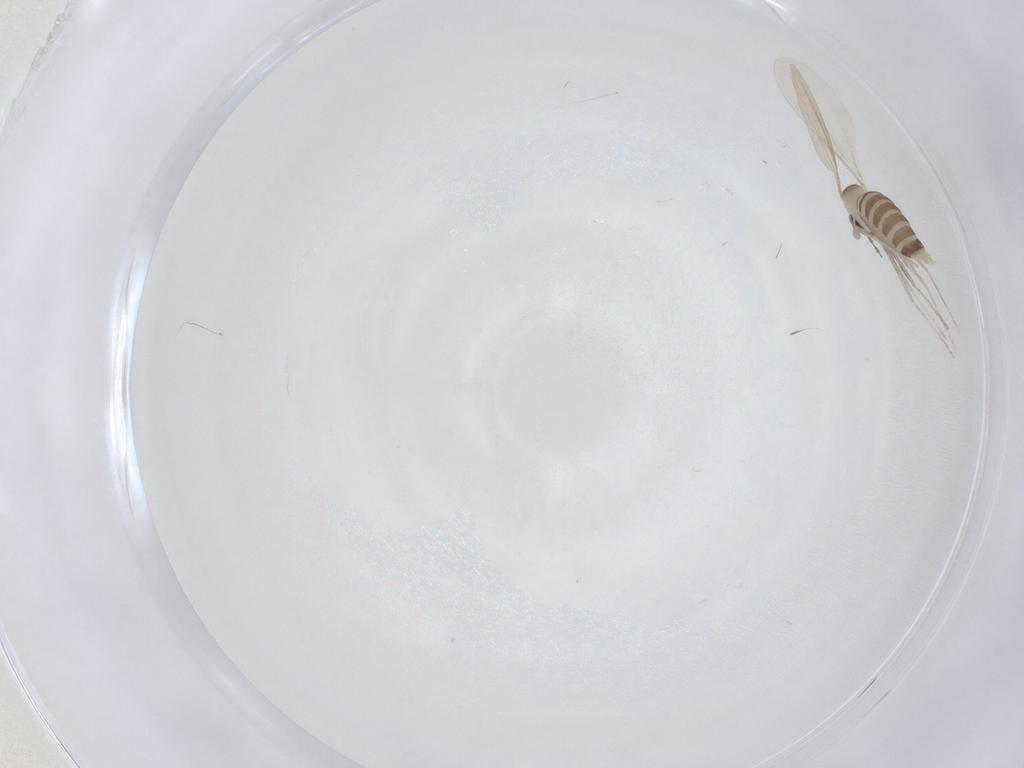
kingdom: Animalia
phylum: Arthropoda
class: Insecta
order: Diptera
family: Cecidomyiidae
